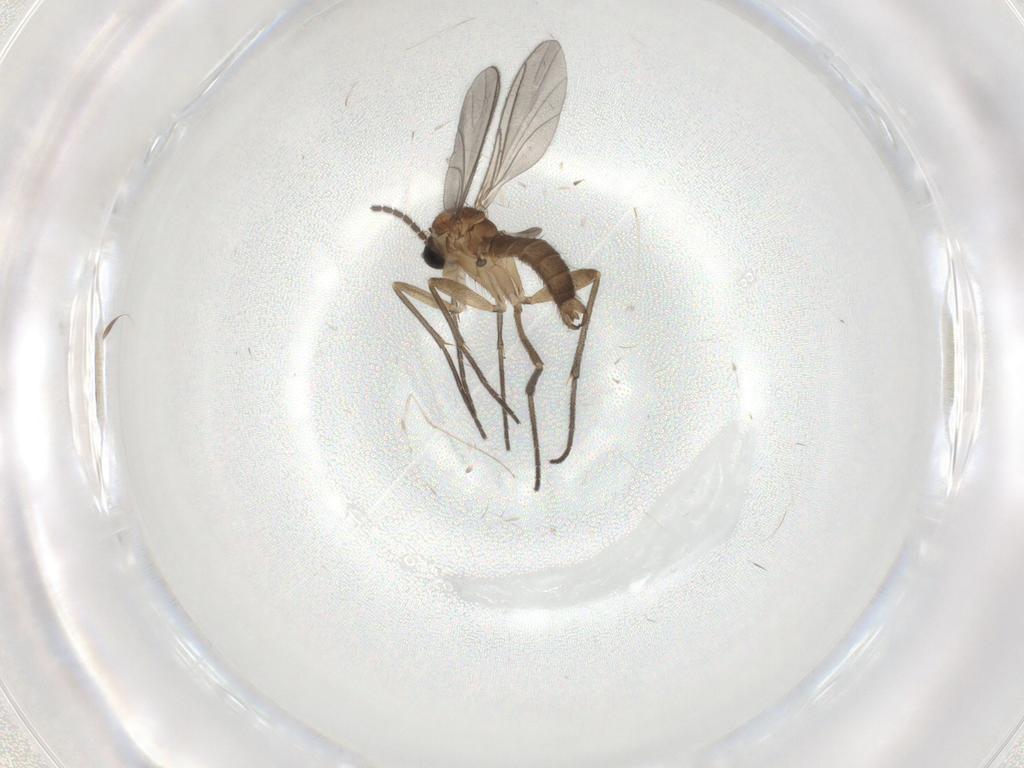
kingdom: Animalia
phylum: Arthropoda
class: Insecta
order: Diptera
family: Sciaridae
